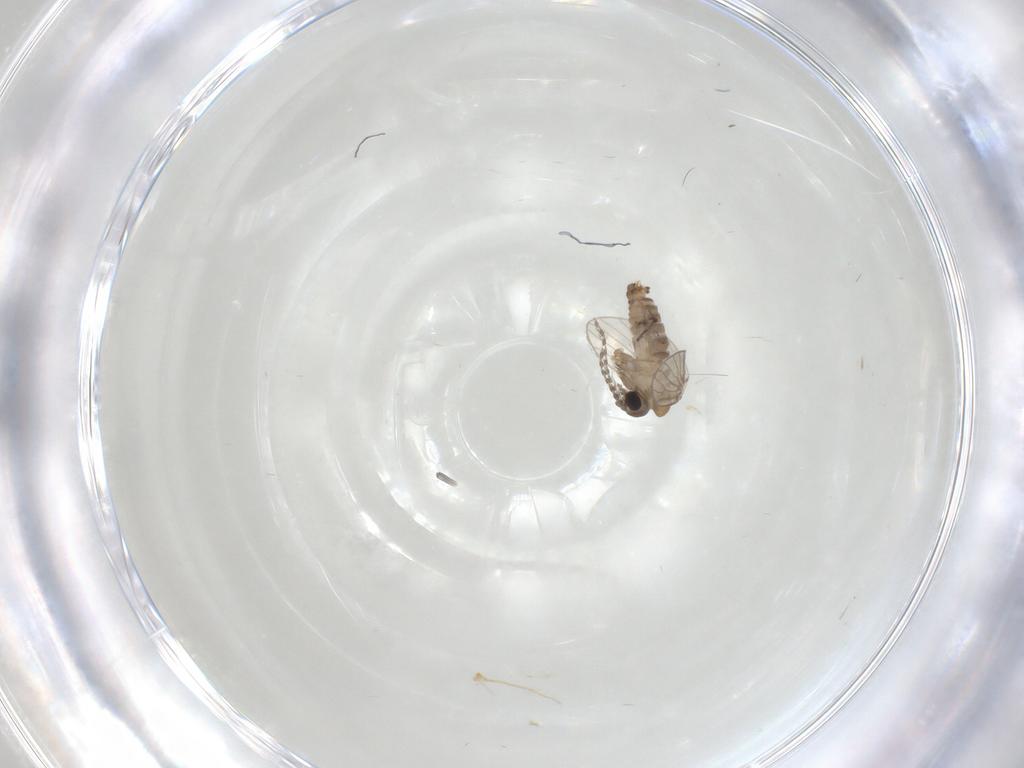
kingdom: Animalia
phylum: Arthropoda
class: Insecta
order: Diptera
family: Psychodidae
